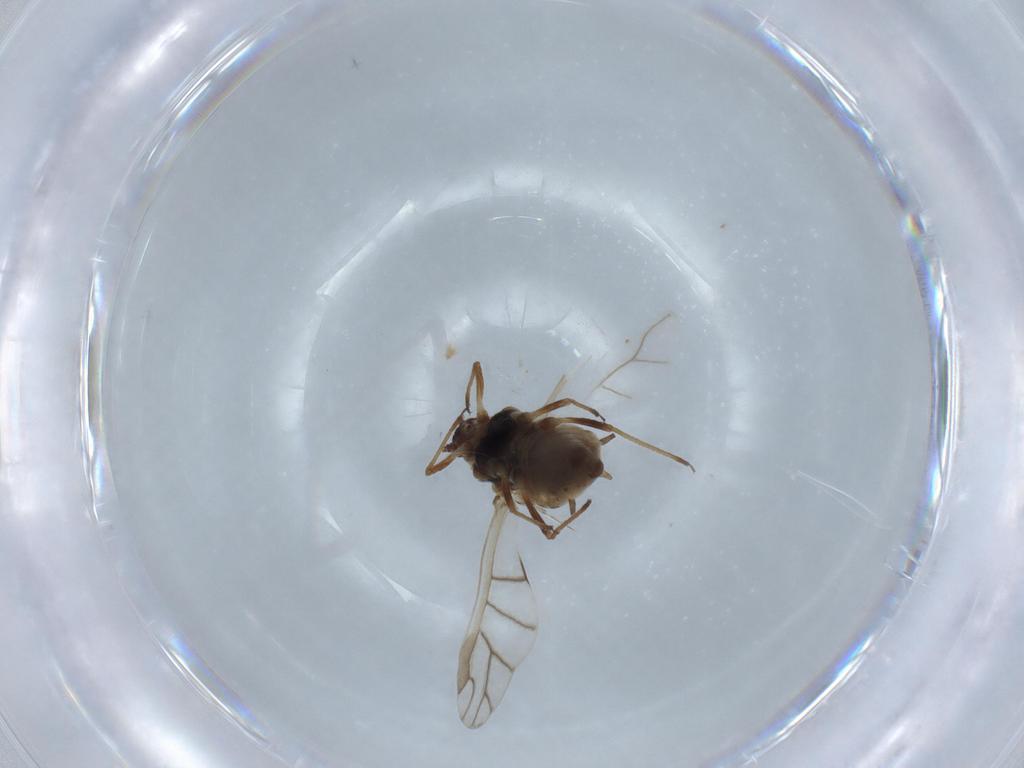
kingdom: Animalia
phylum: Arthropoda
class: Insecta
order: Hemiptera
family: Aphididae
